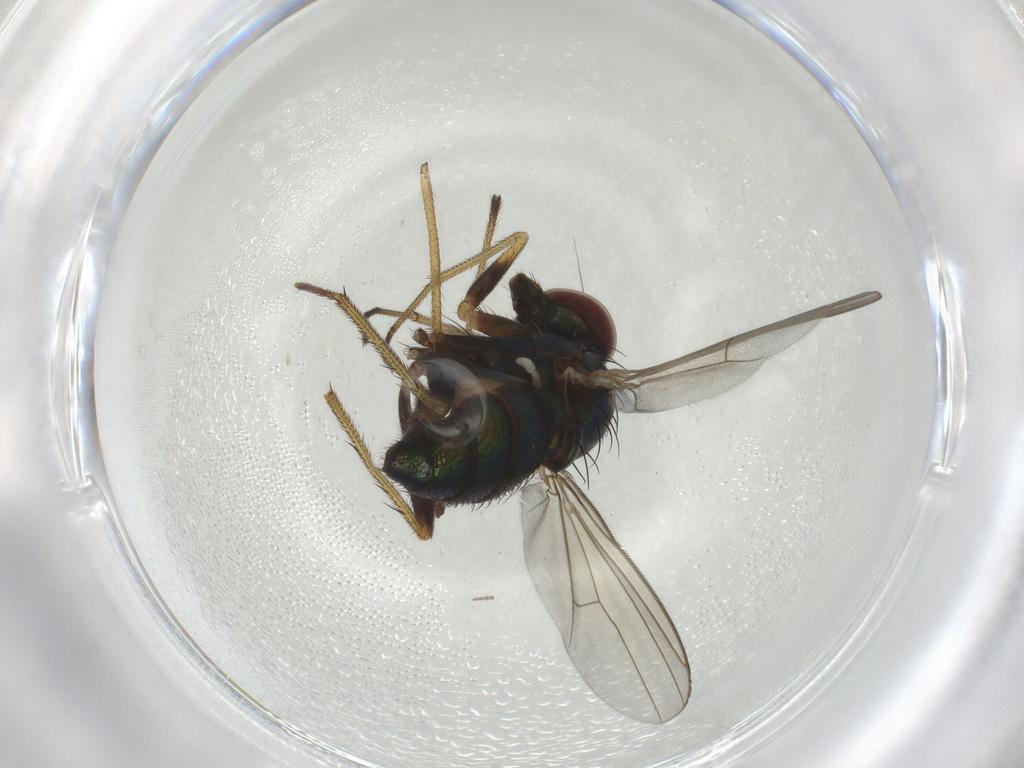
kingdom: Animalia
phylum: Arthropoda
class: Insecta
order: Diptera
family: Dolichopodidae
